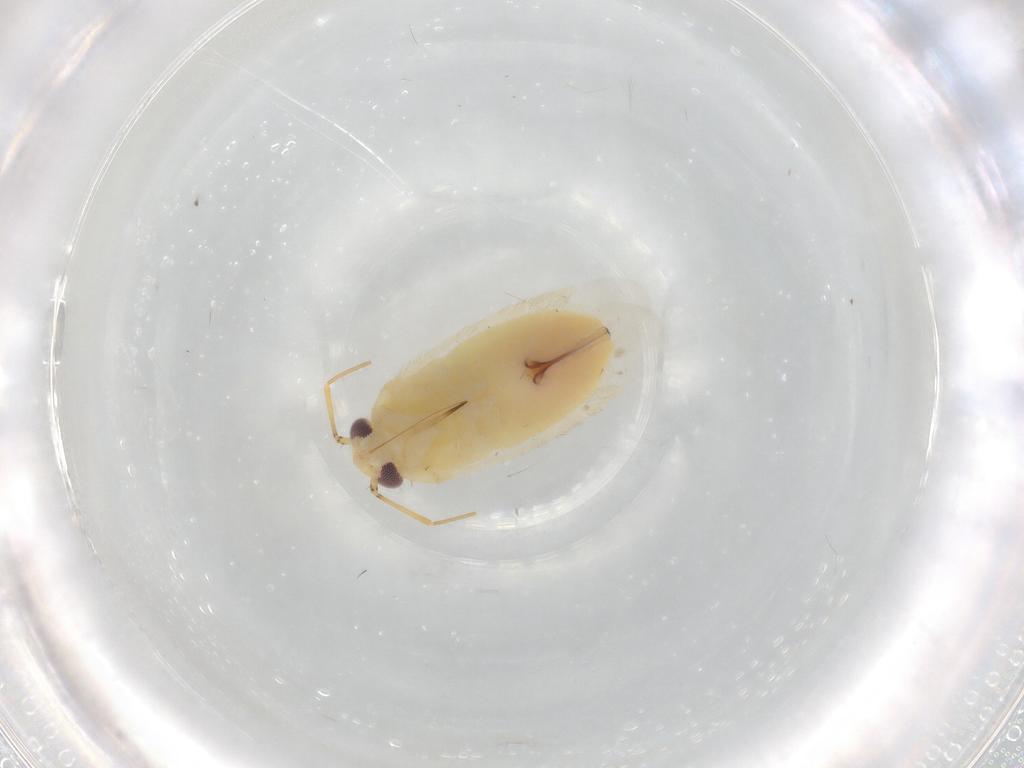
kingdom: Animalia
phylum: Arthropoda
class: Insecta
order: Hemiptera
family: Miridae
